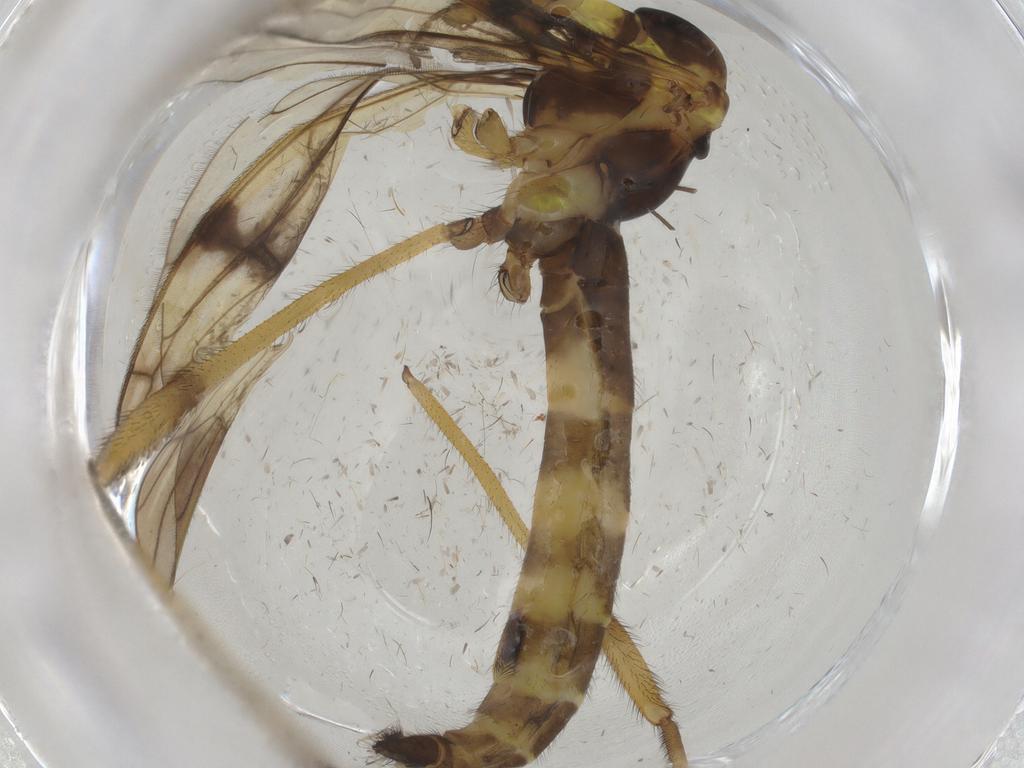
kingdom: Animalia
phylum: Arthropoda
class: Insecta
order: Diptera
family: Limoniidae
